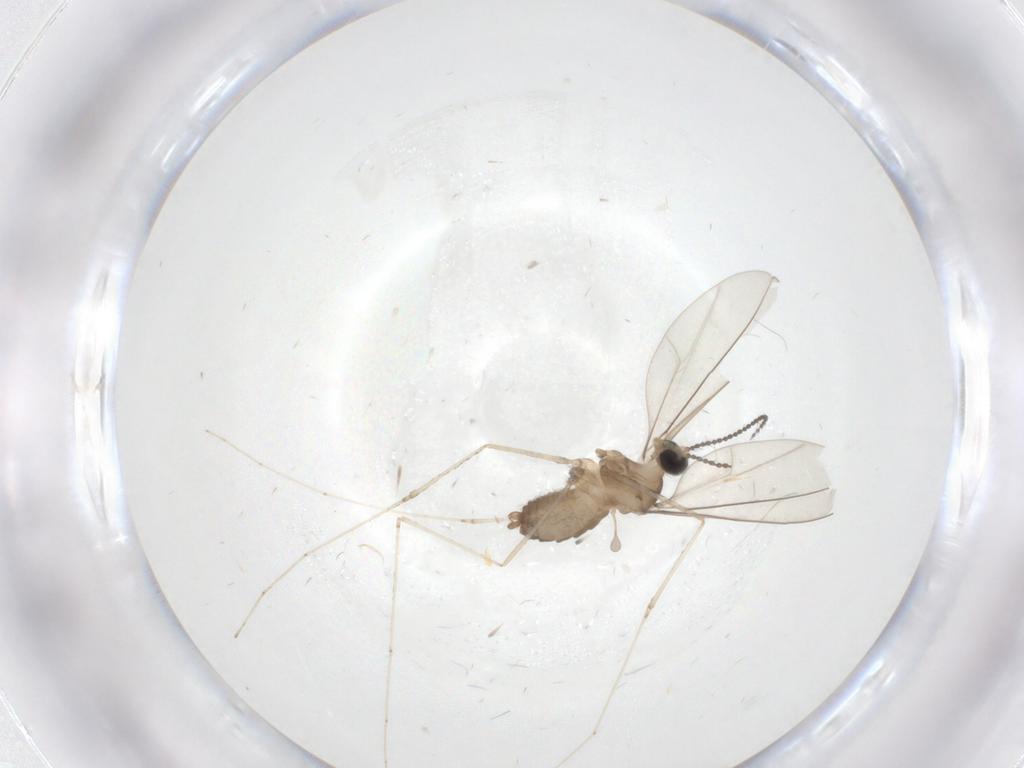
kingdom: Animalia
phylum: Arthropoda
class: Insecta
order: Diptera
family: Cecidomyiidae
